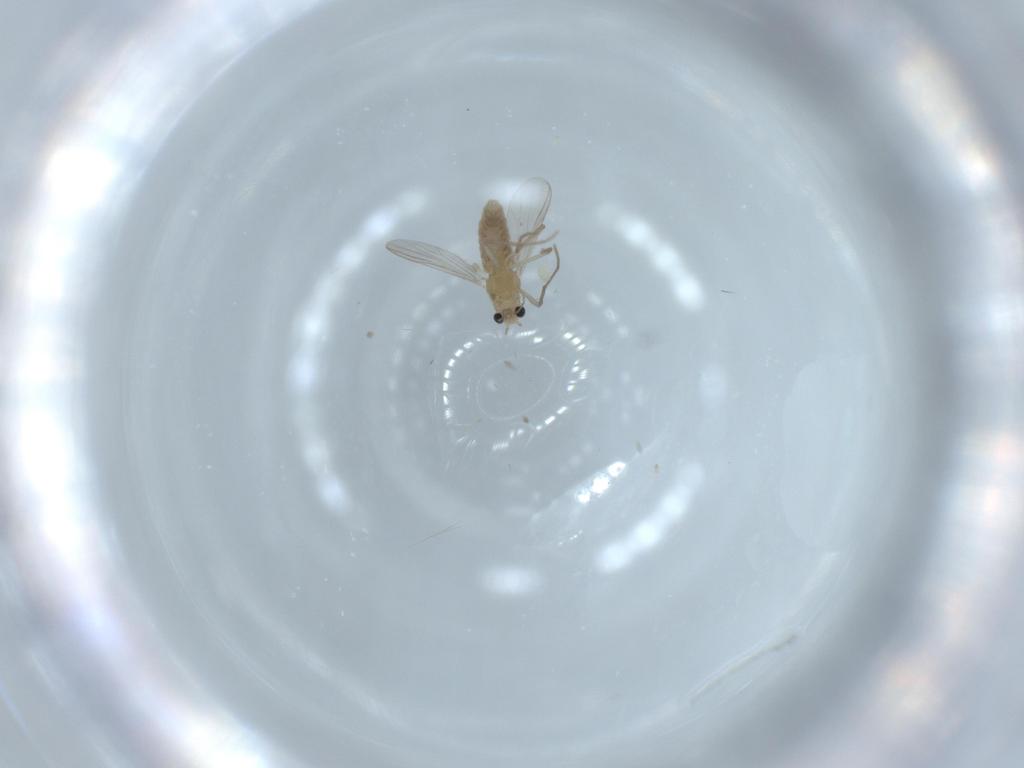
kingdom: Animalia
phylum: Arthropoda
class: Insecta
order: Diptera
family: Chironomidae
